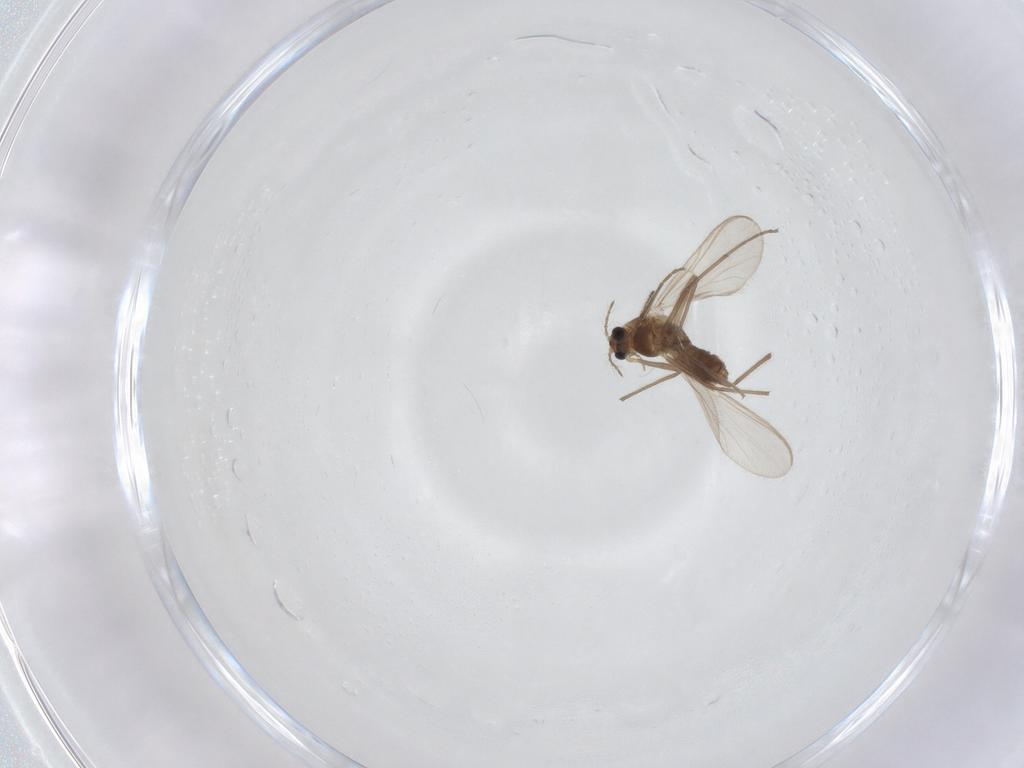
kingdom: Animalia
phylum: Arthropoda
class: Insecta
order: Diptera
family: Chironomidae
